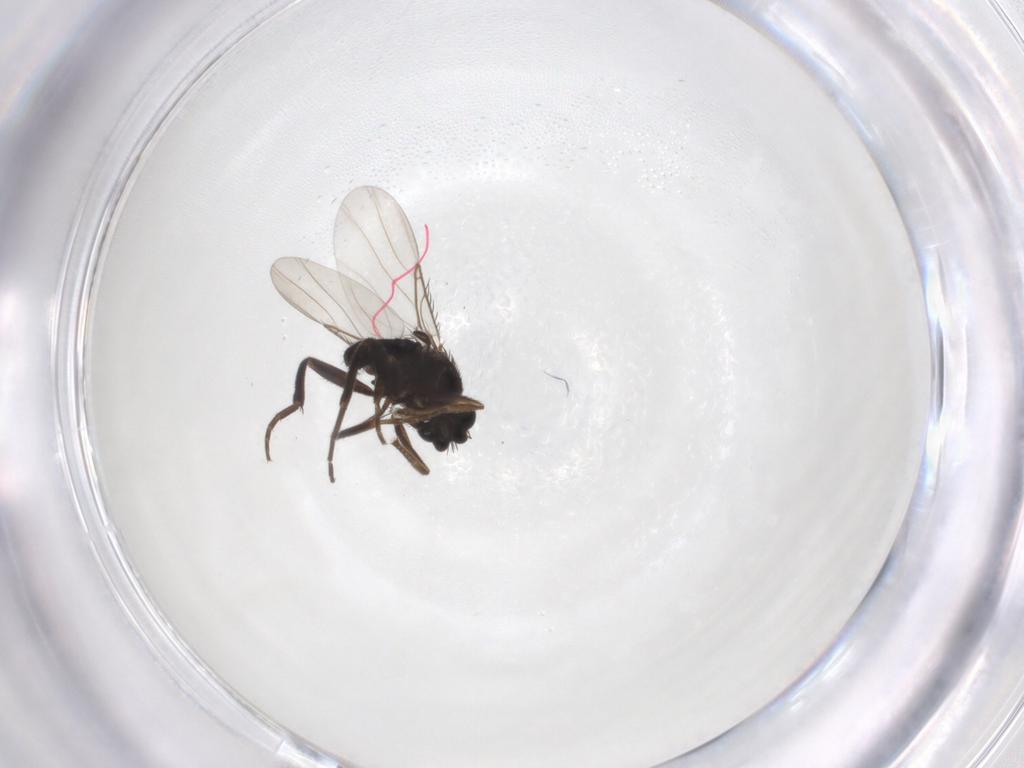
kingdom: Animalia
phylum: Arthropoda
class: Insecta
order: Diptera
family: Phoridae
